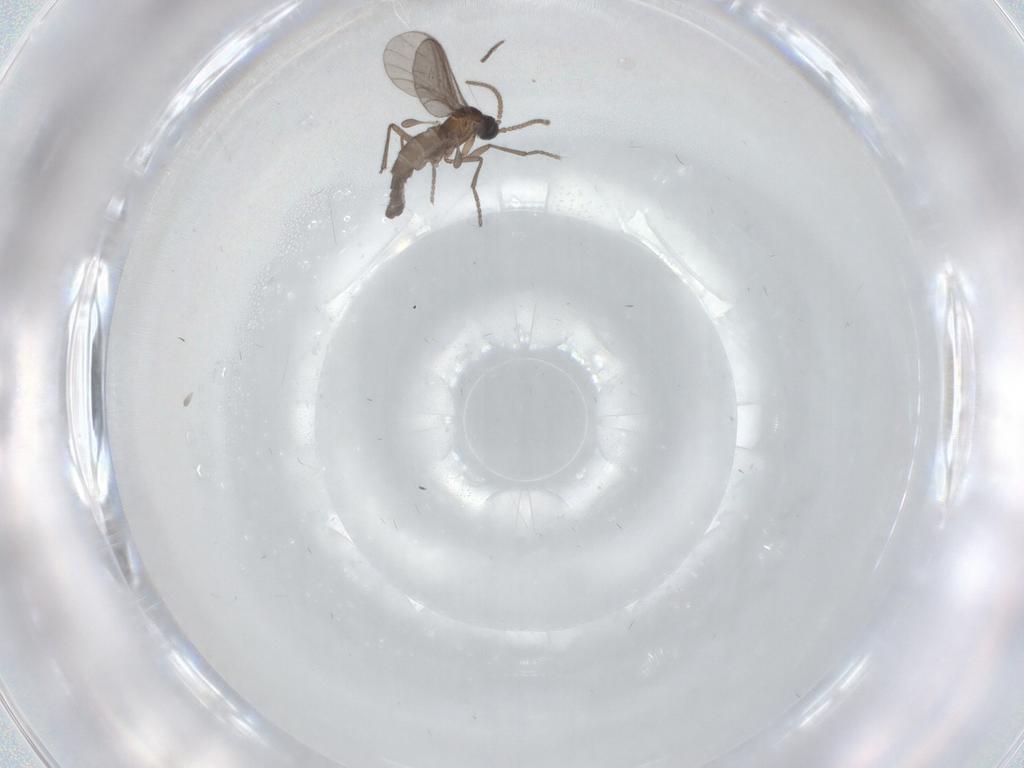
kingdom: Animalia
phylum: Arthropoda
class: Insecta
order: Diptera
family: Sciaridae
